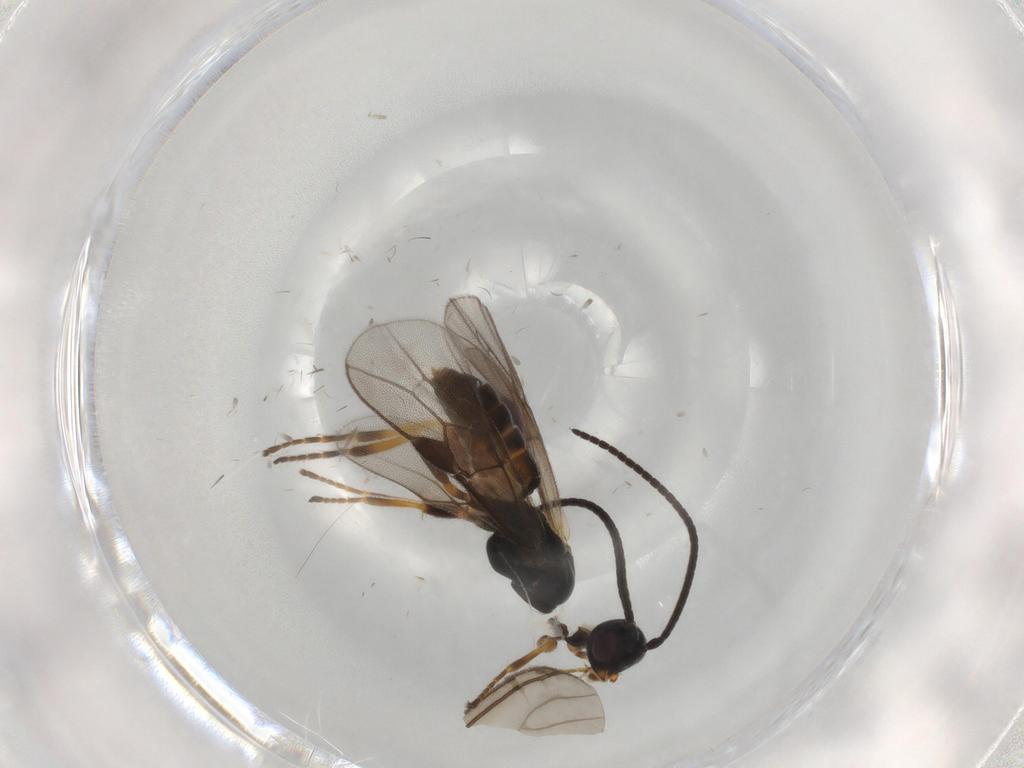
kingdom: Animalia
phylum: Arthropoda
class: Insecta
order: Hymenoptera
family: Braconidae
